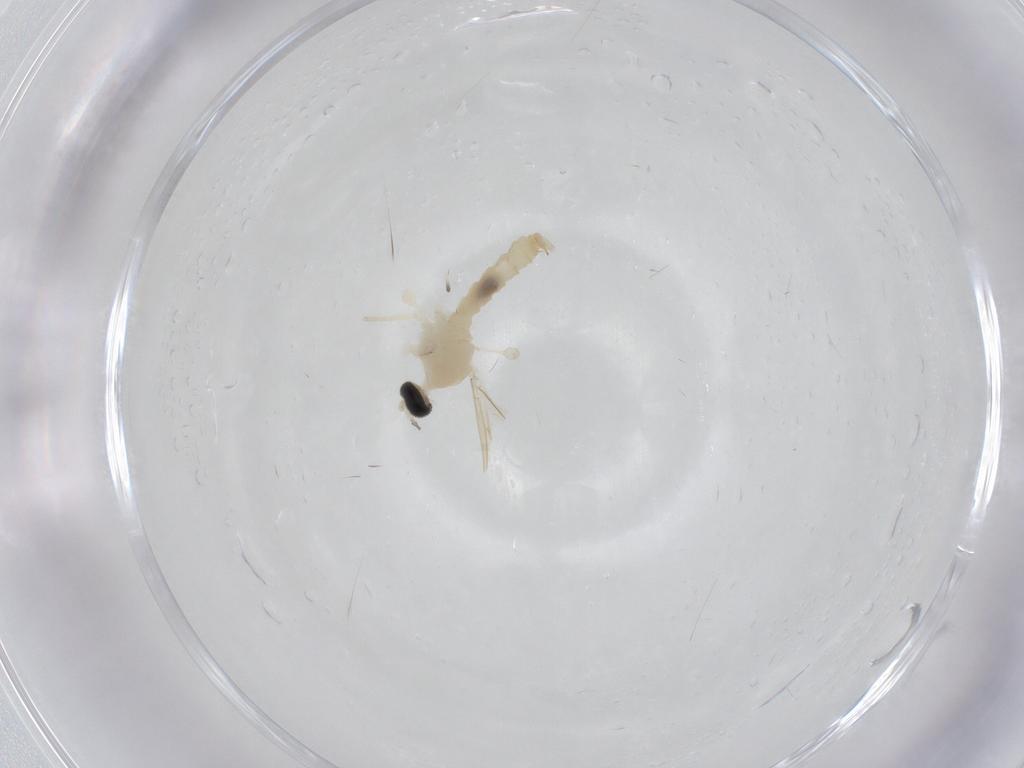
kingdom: Animalia
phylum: Arthropoda
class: Insecta
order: Diptera
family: Cecidomyiidae
